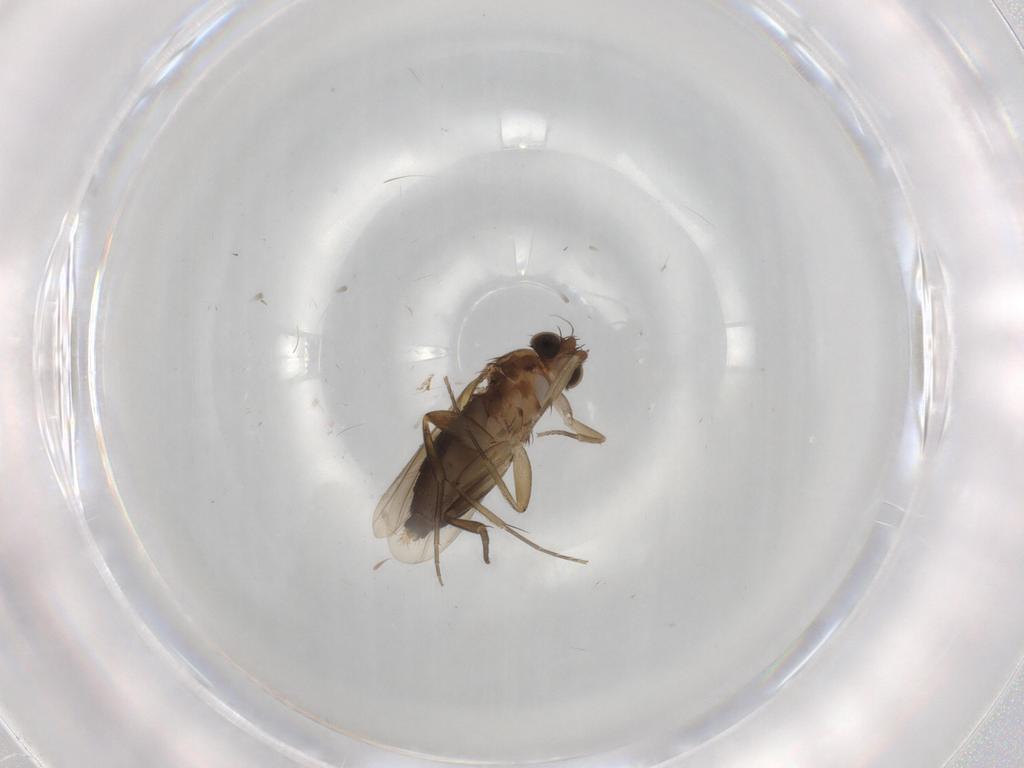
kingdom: Animalia
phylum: Arthropoda
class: Insecta
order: Diptera
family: Phoridae
